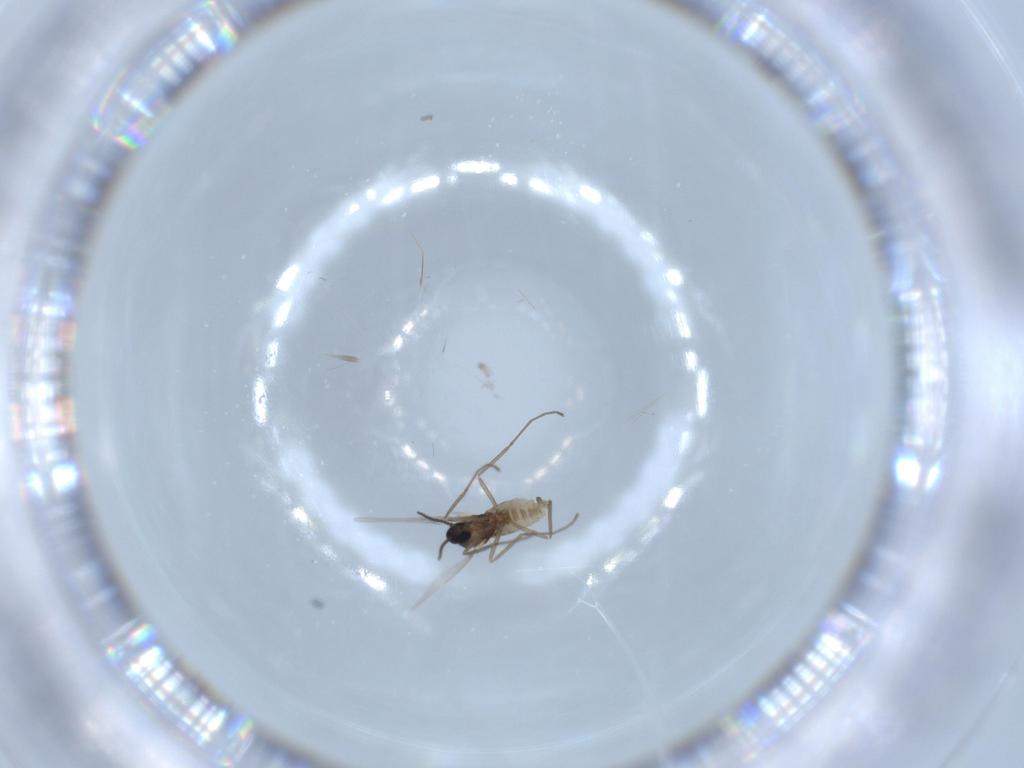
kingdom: Animalia
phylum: Arthropoda
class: Insecta
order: Diptera
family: Cecidomyiidae
